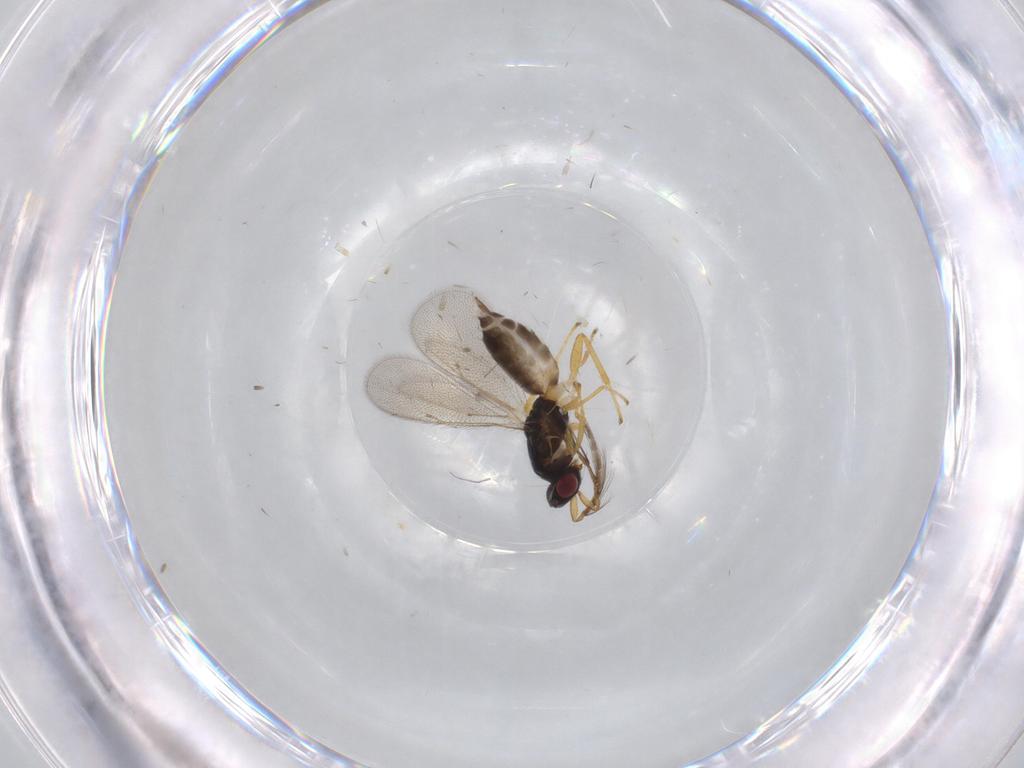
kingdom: Animalia
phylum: Arthropoda
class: Insecta
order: Hymenoptera
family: Eulophidae
